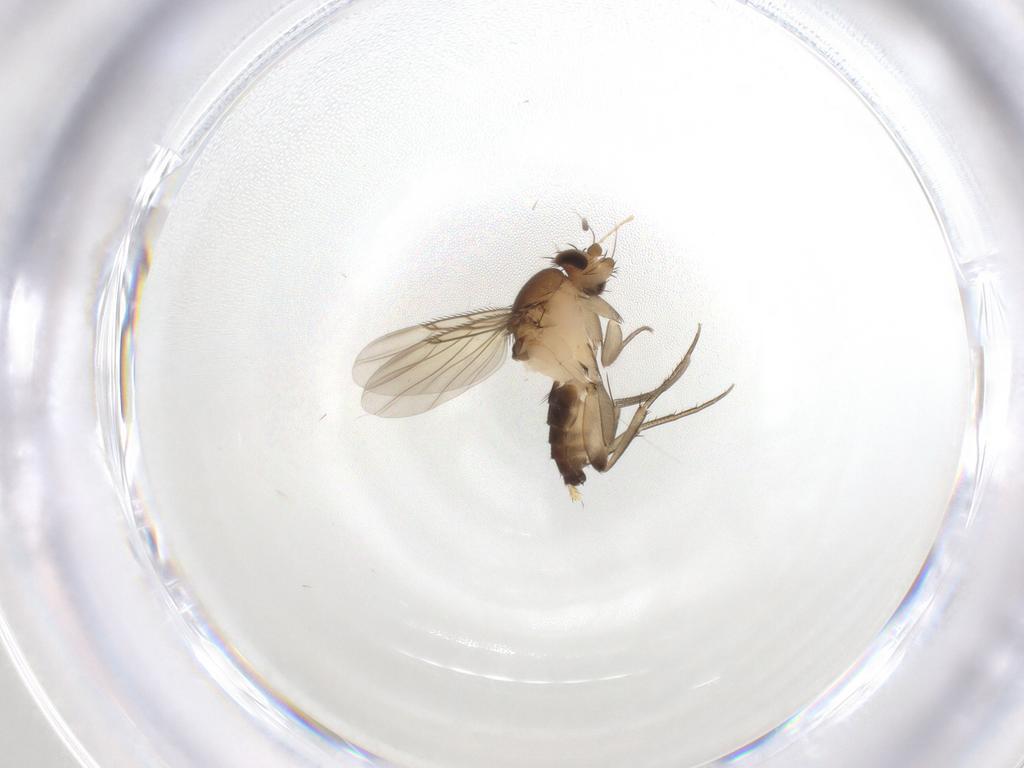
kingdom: Animalia
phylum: Arthropoda
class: Insecta
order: Diptera
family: Phoridae
